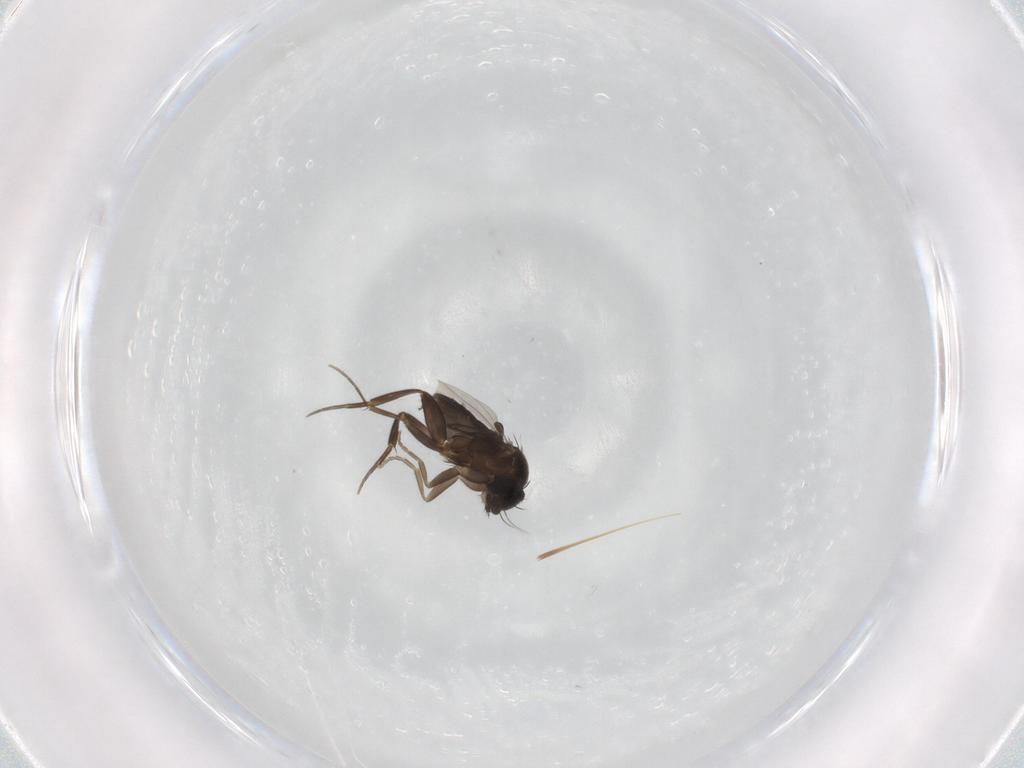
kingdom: Animalia
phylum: Arthropoda
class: Insecta
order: Diptera
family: Phoridae
